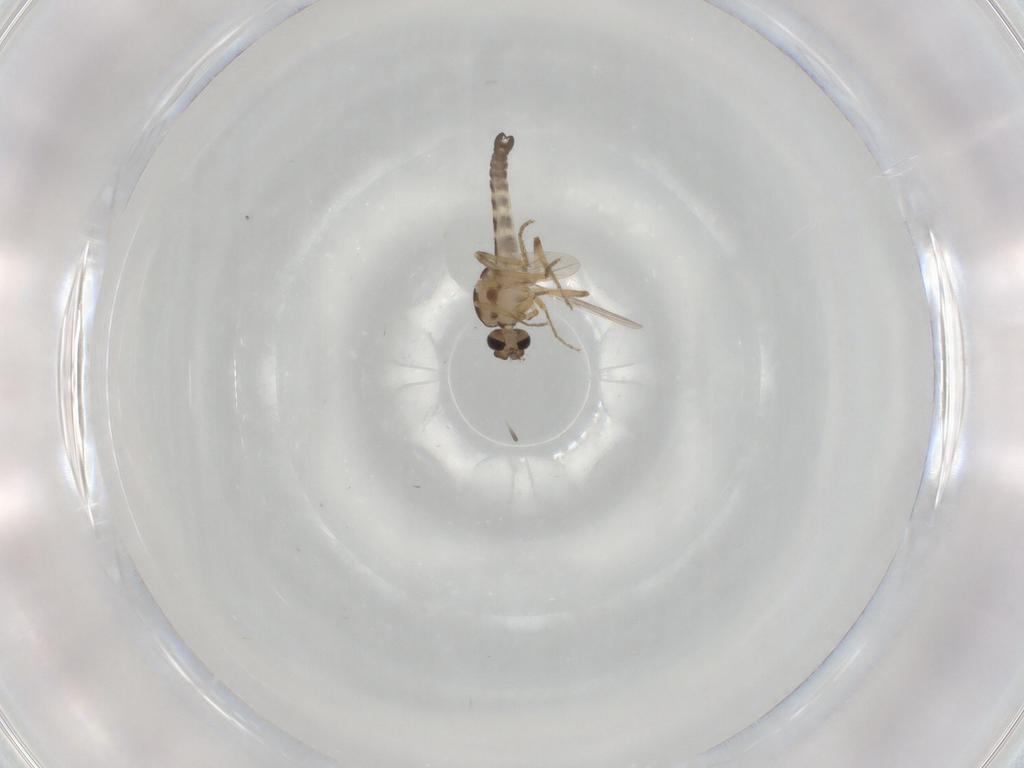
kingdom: Animalia
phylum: Arthropoda
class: Insecta
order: Diptera
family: Ceratopogonidae
